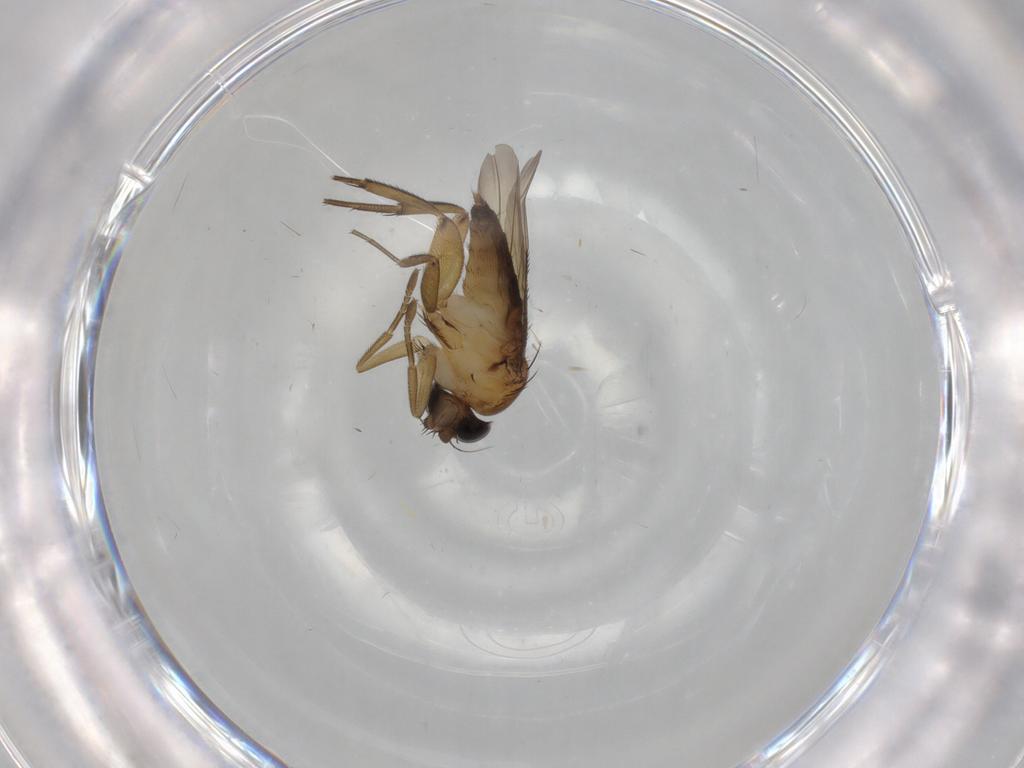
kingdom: Animalia
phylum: Arthropoda
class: Insecta
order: Diptera
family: Phoridae
